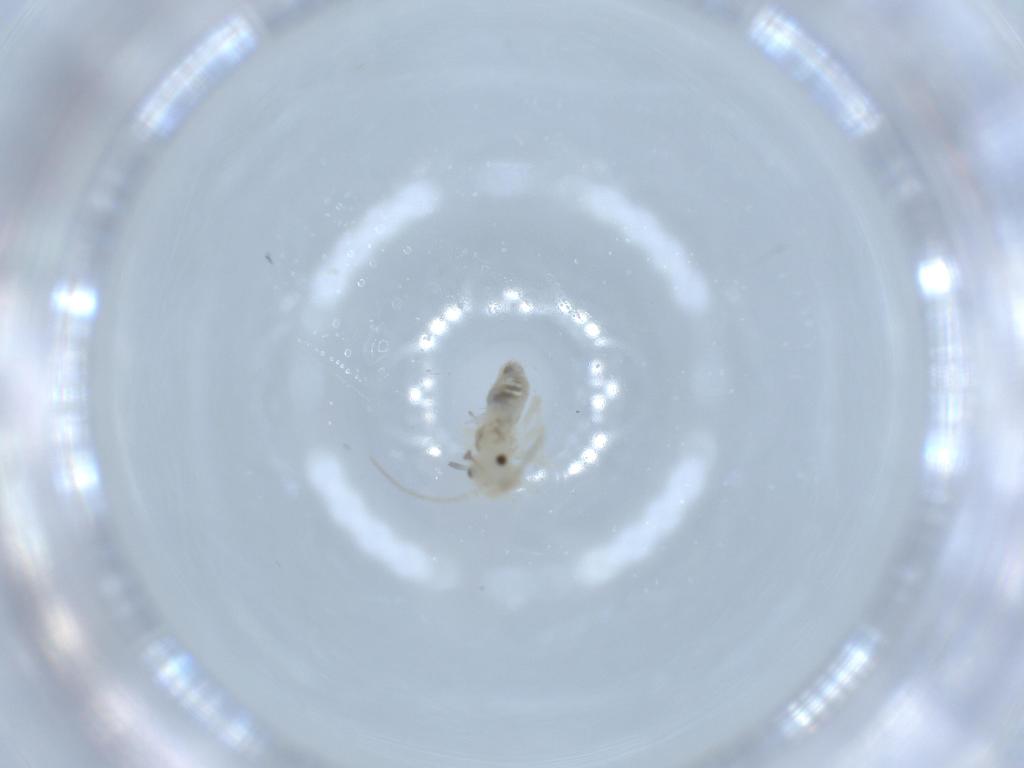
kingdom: Animalia
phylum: Arthropoda
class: Insecta
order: Psocodea
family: Caeciliusidae
